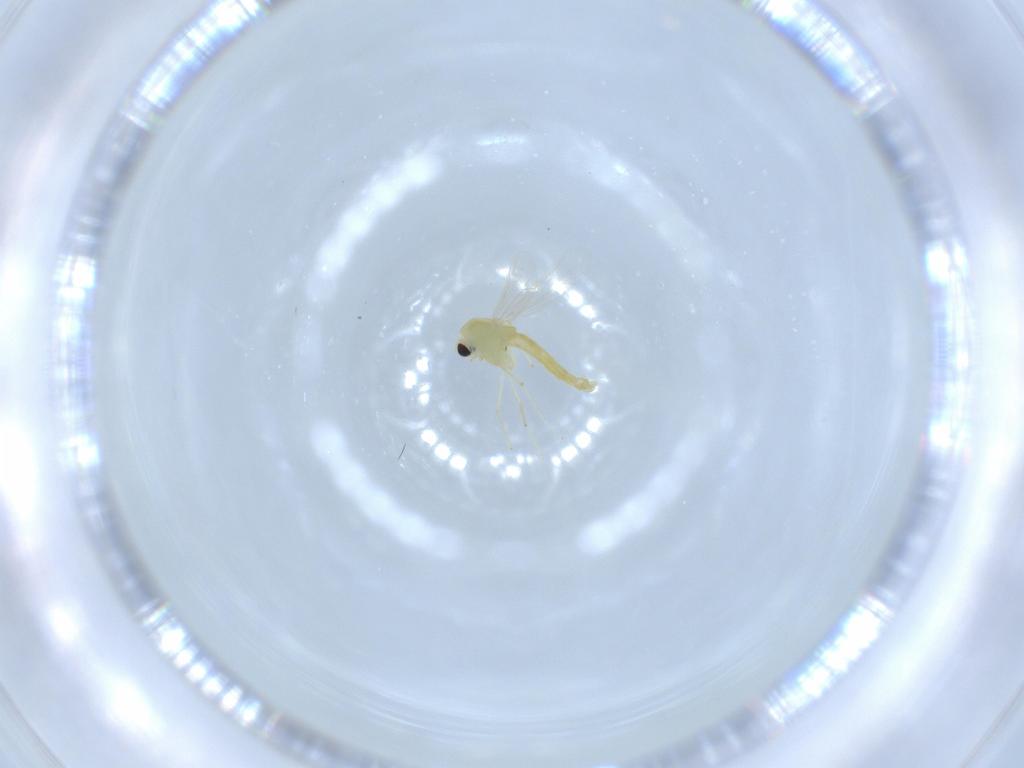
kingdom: Animalia
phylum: Arthropoda
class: Insecta
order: Diptera
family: Chironomidae
